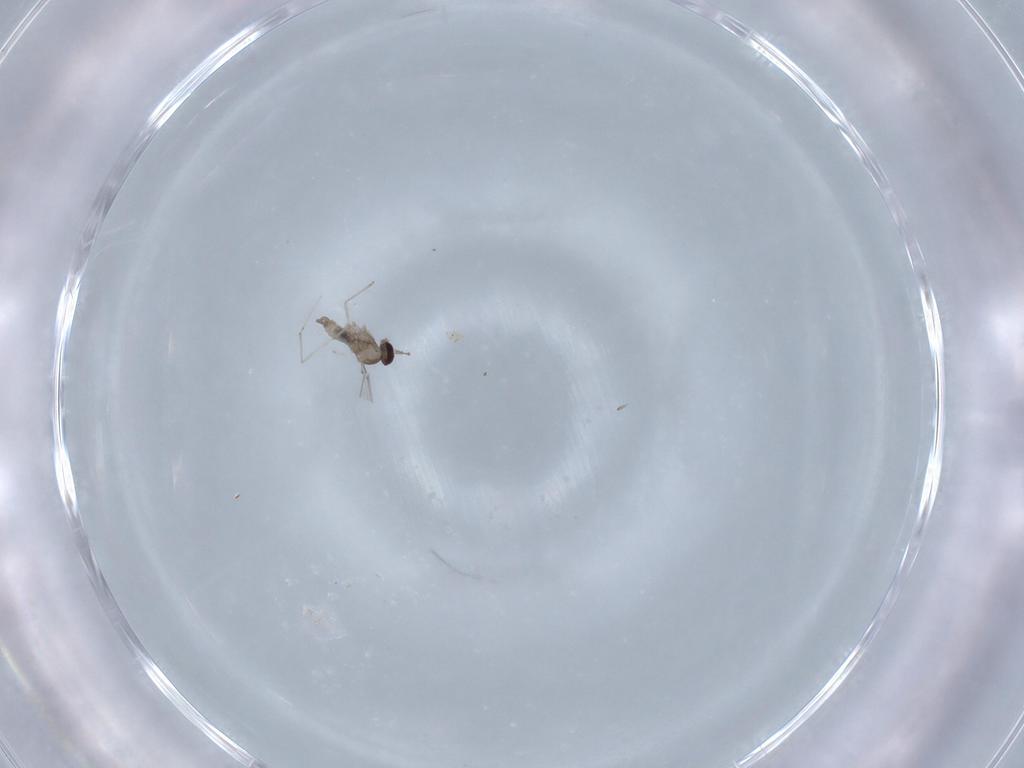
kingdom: Animalia
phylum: Arthropoda
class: Insecta
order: Diptera
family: Cecidomyiidae
